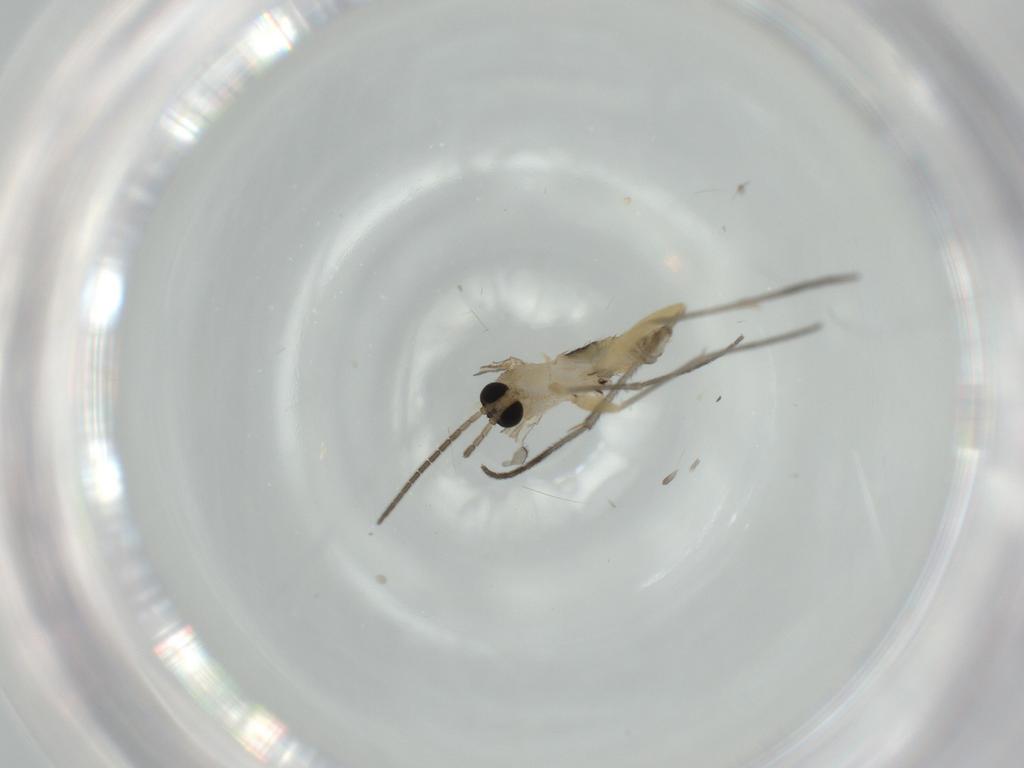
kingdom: Animalia
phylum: Arthropoda
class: Insecta
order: Diptera
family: Sciaridae
